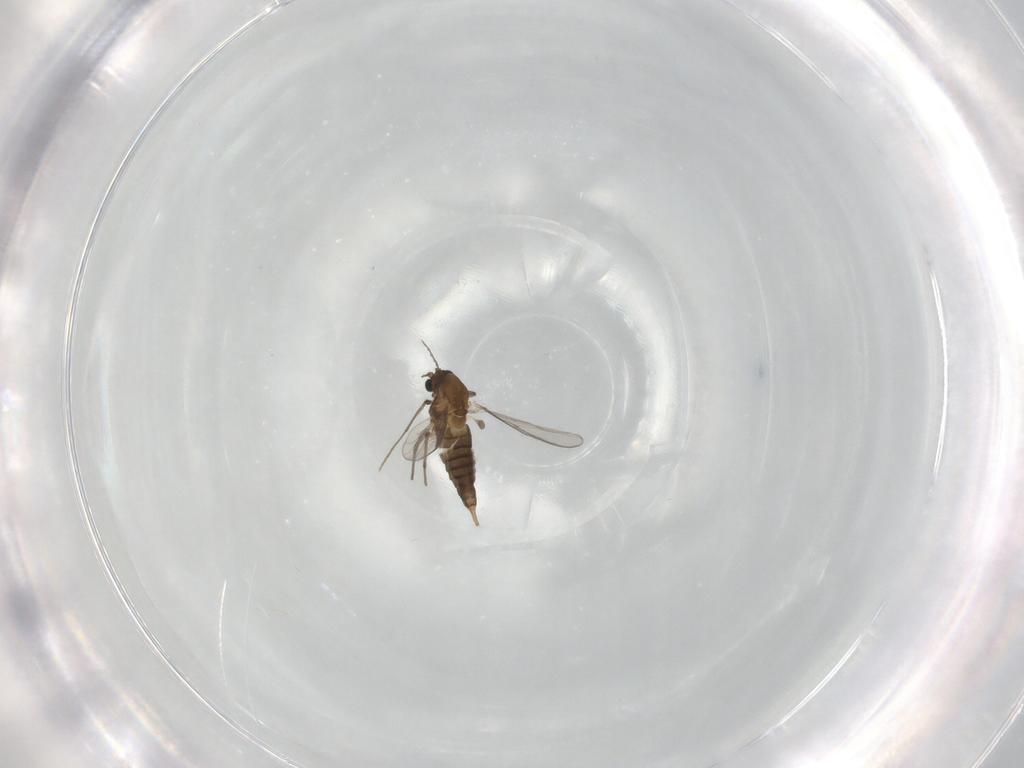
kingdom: Animalia
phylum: Arthropoda
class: Insecta
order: Diptera
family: Chironomidae
